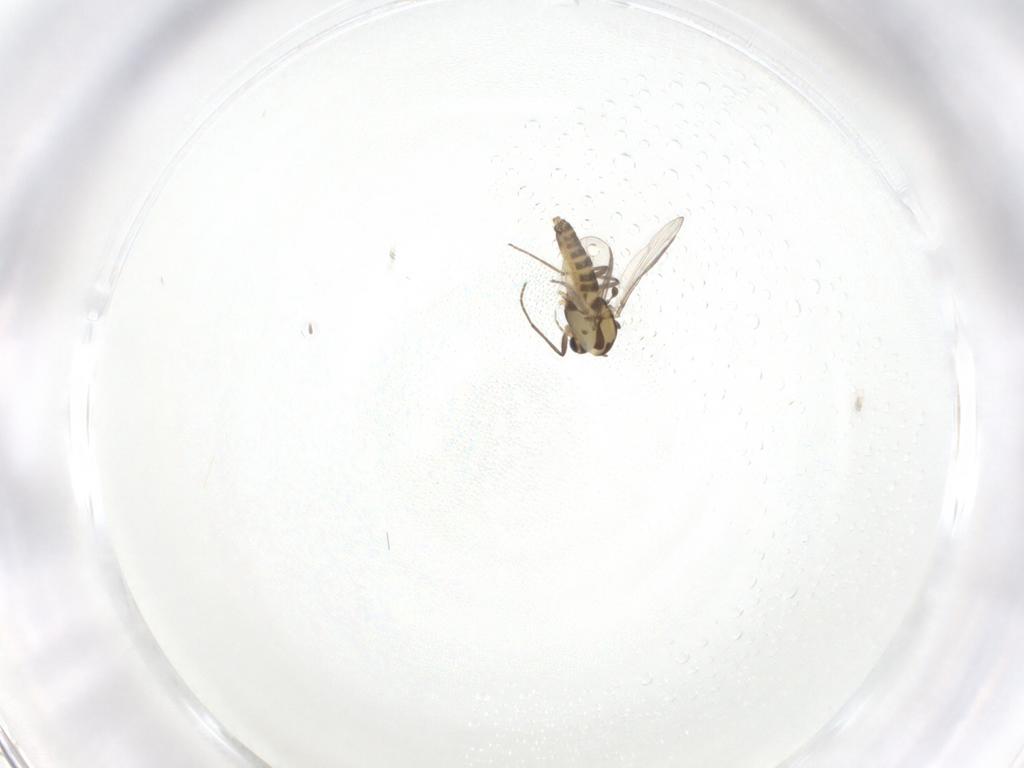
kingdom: Animalia
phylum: Arthropoda
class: Insecta
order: Diptera
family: Chironomidae
